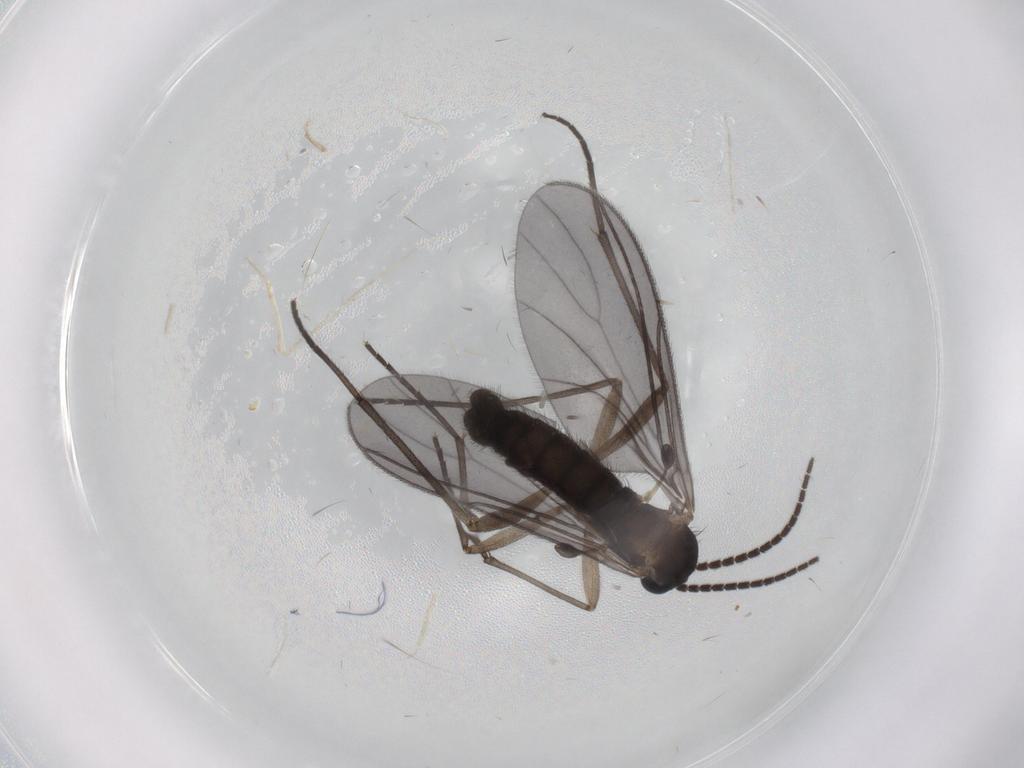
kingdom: Animalia
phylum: Arthropoda
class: Insecta
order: Diptera
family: Sciaridae
